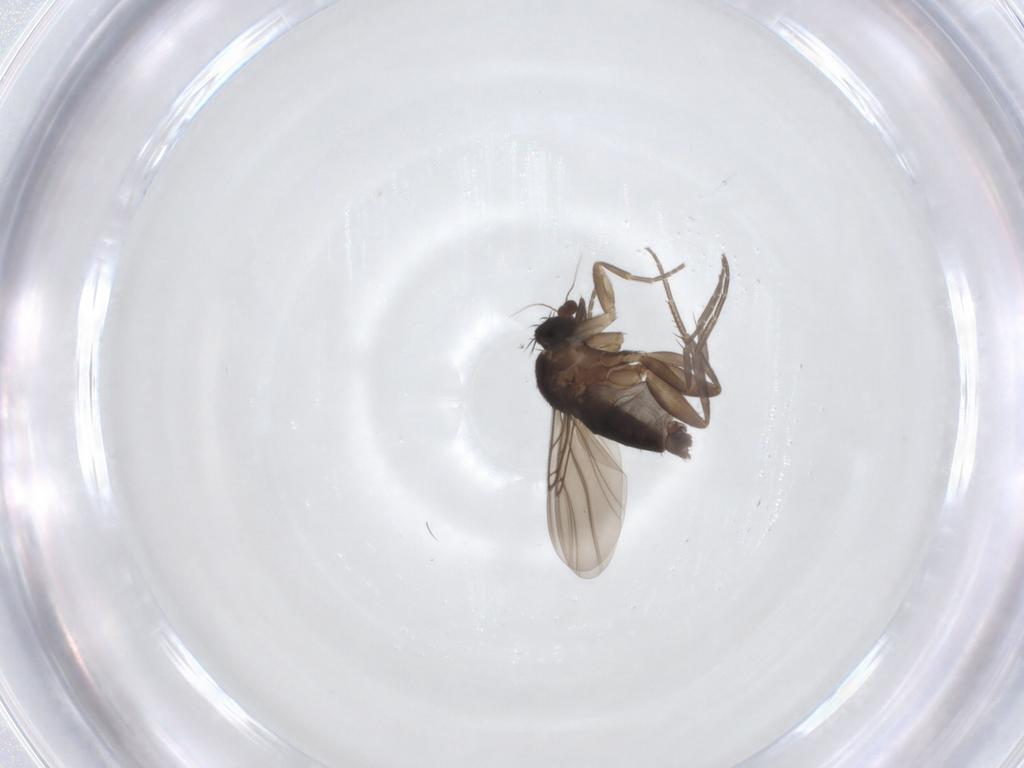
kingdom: Animalia
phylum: Arthropoda
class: Insecta
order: Diptera
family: Phoridae
